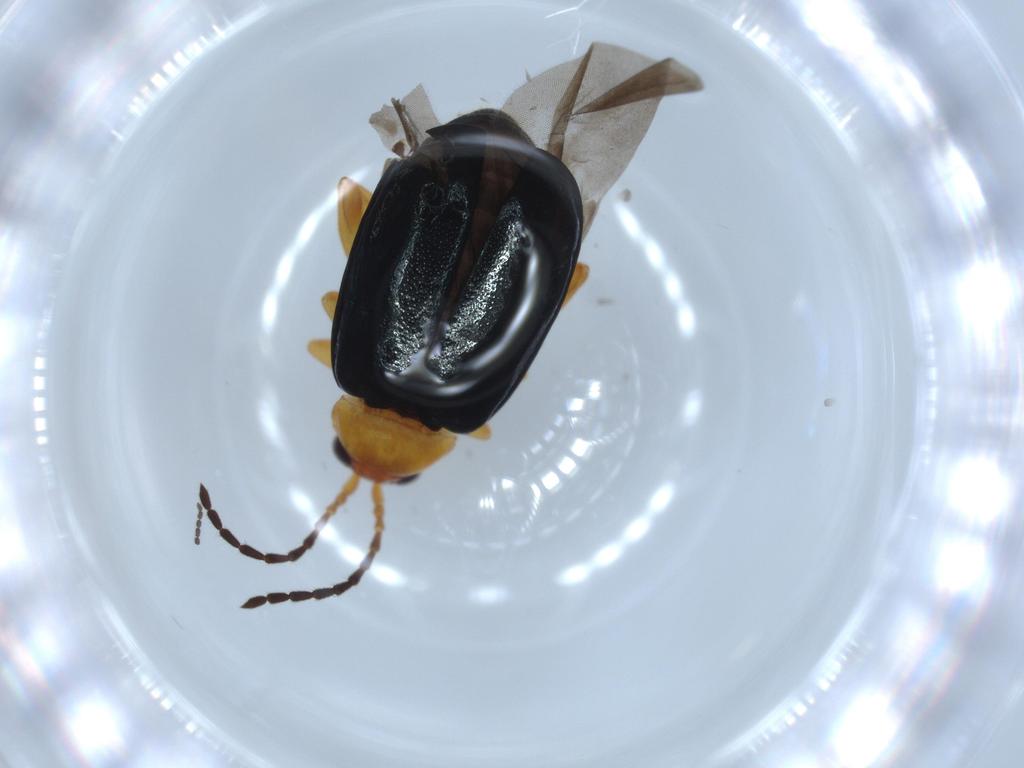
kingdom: Animalia
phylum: Arthropoda
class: Insecta
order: Coleoptera
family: Chrysomelidae
